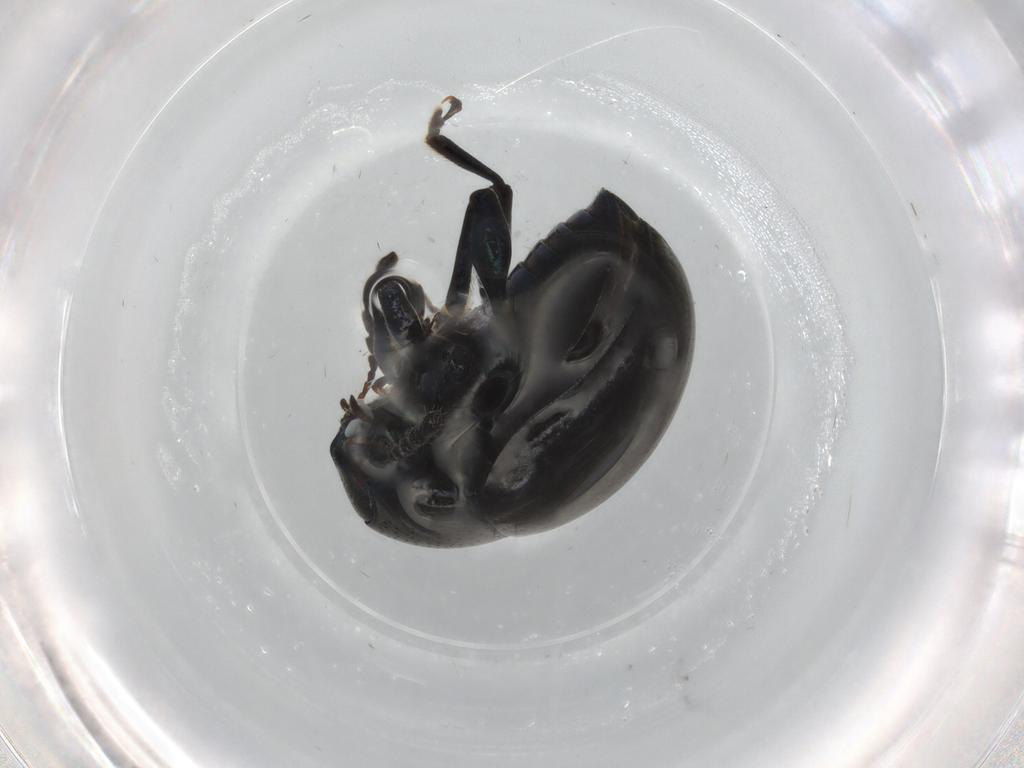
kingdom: Animalia
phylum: Arthropoda
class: Insecta
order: Coleoptera
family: Chrysomelidae
